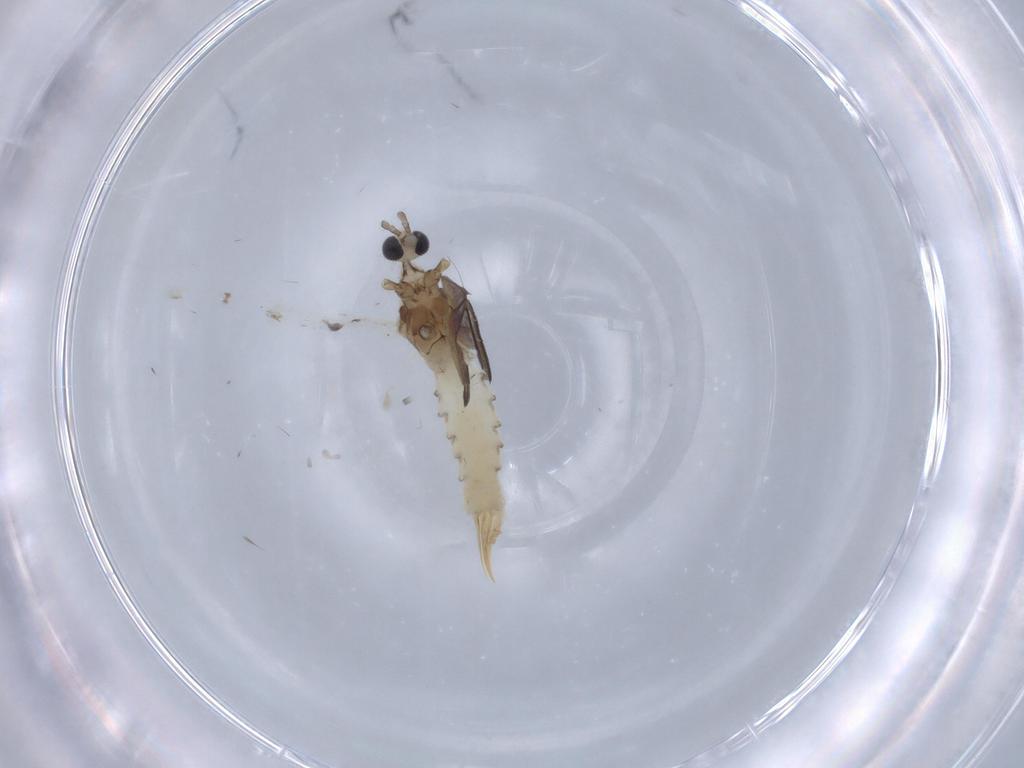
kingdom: Animalia
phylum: Arthropoda
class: Insecta
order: Diptera
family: Limoniidae
